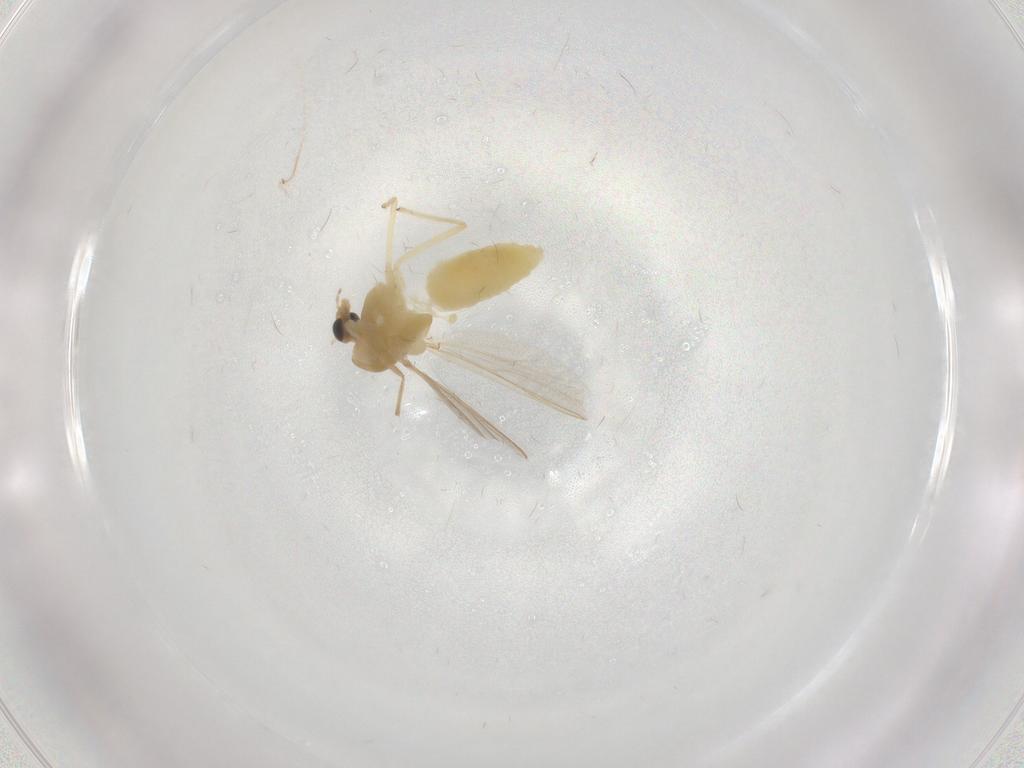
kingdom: Animalia
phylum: Arthropoda
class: Insecta
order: Diptera
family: Chironomidae
